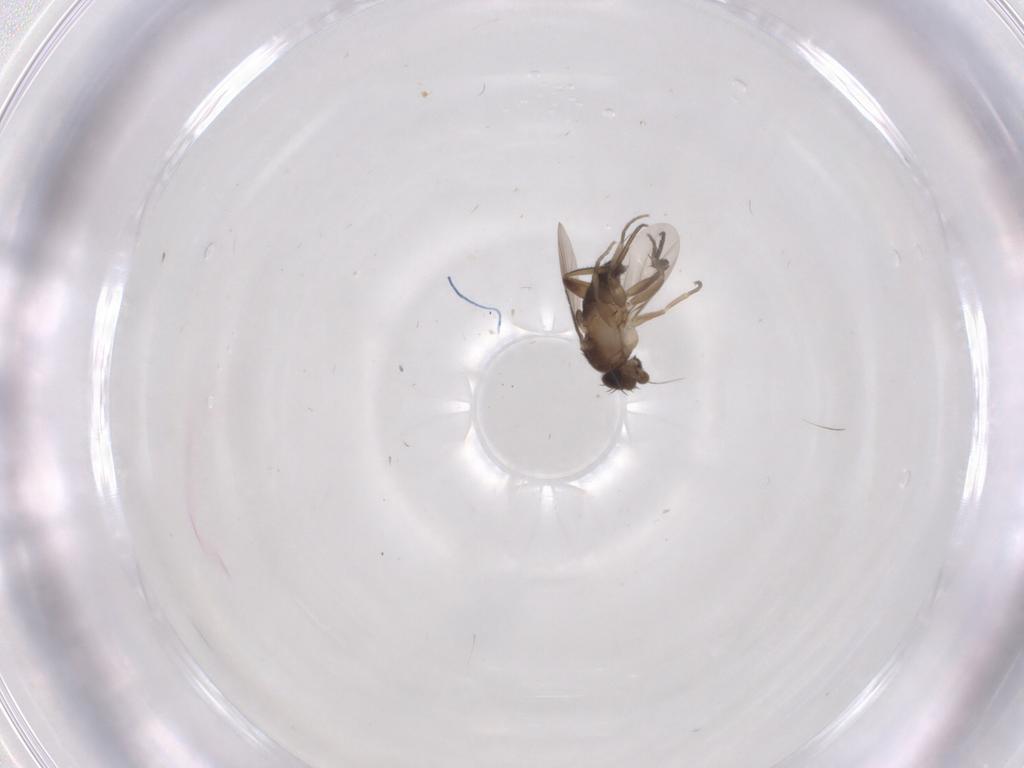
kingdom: Animalia
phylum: Arthropoda
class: Insecta
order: Diptera
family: Phoridae
